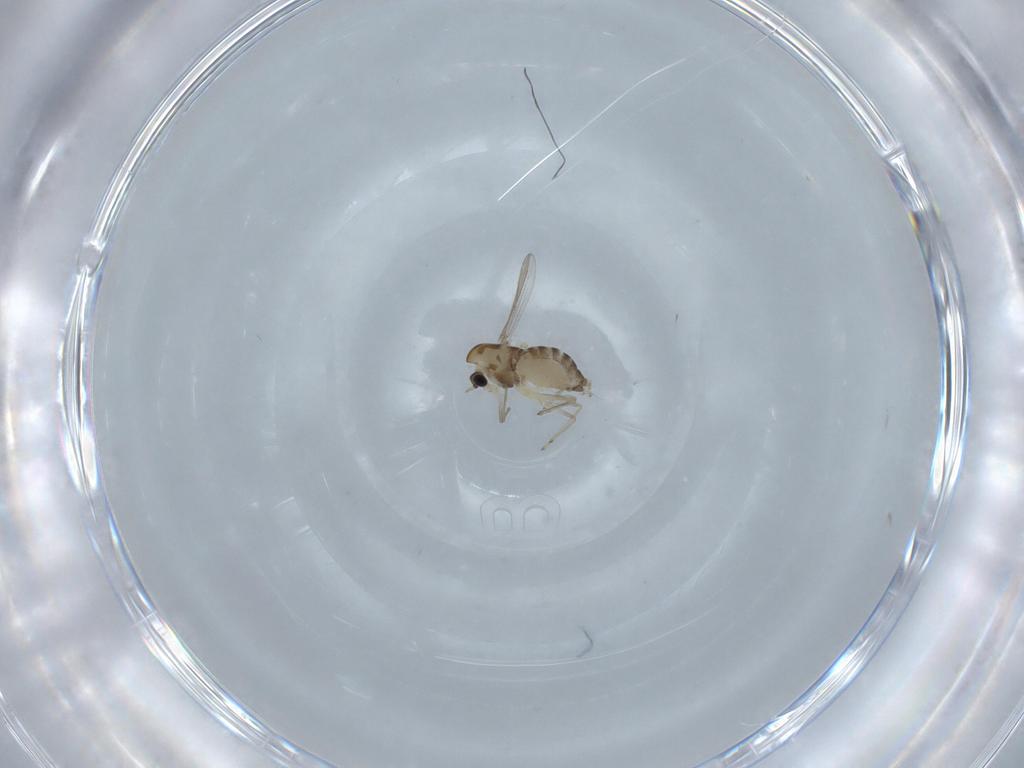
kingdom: Animalia
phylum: Arthropoda
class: Insecta
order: Diptera
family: Chironomidae
